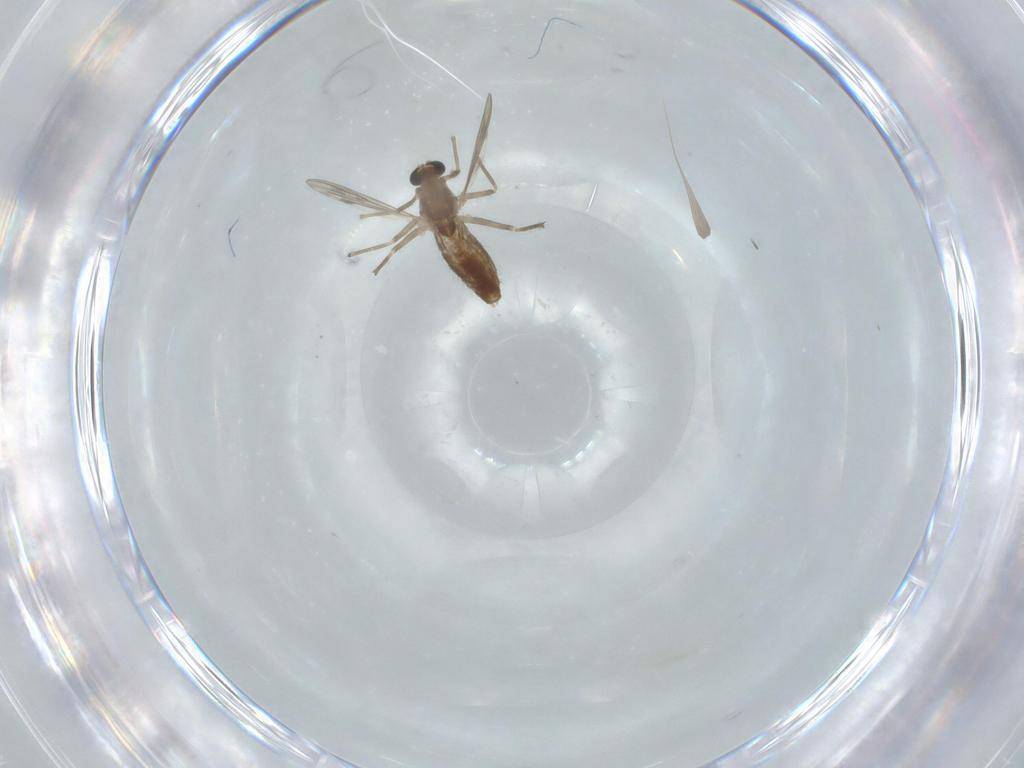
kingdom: Animalia
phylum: Arthropoda
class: Insecta
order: Diptera
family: Chironomidae
